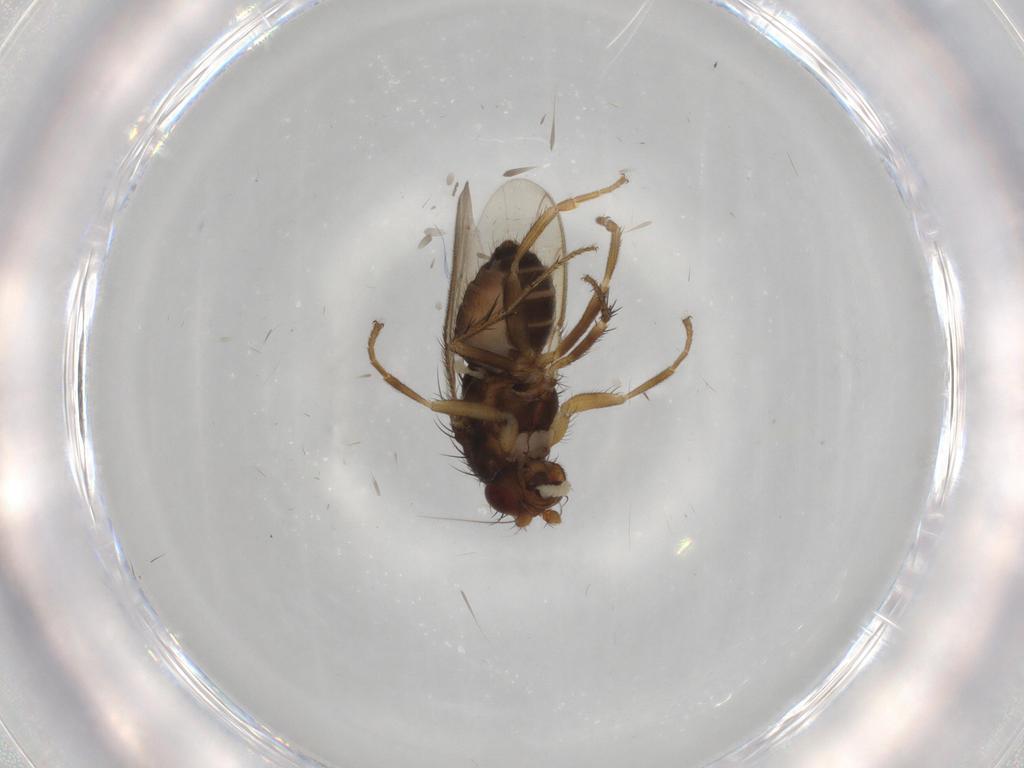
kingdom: Animalia
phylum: Arthropoda
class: Insecta
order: Diptera
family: Sphaeroceridae
